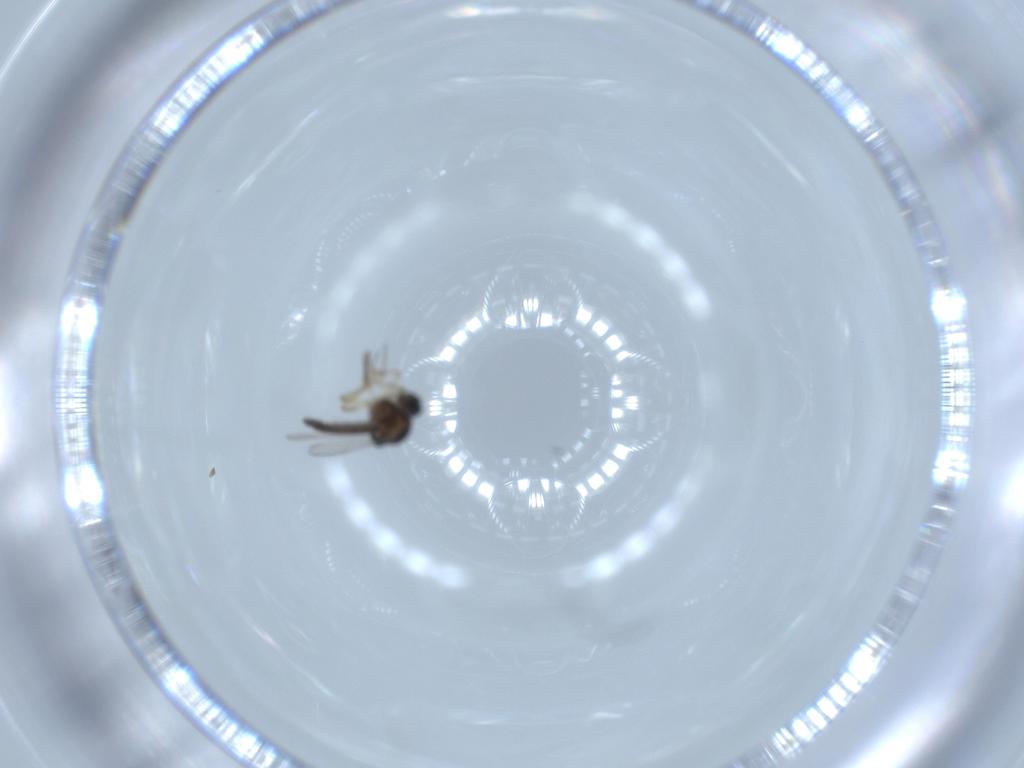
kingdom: Animalia
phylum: Arthropoda
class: Insecta
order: Diptera
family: Ceratopogonidae
